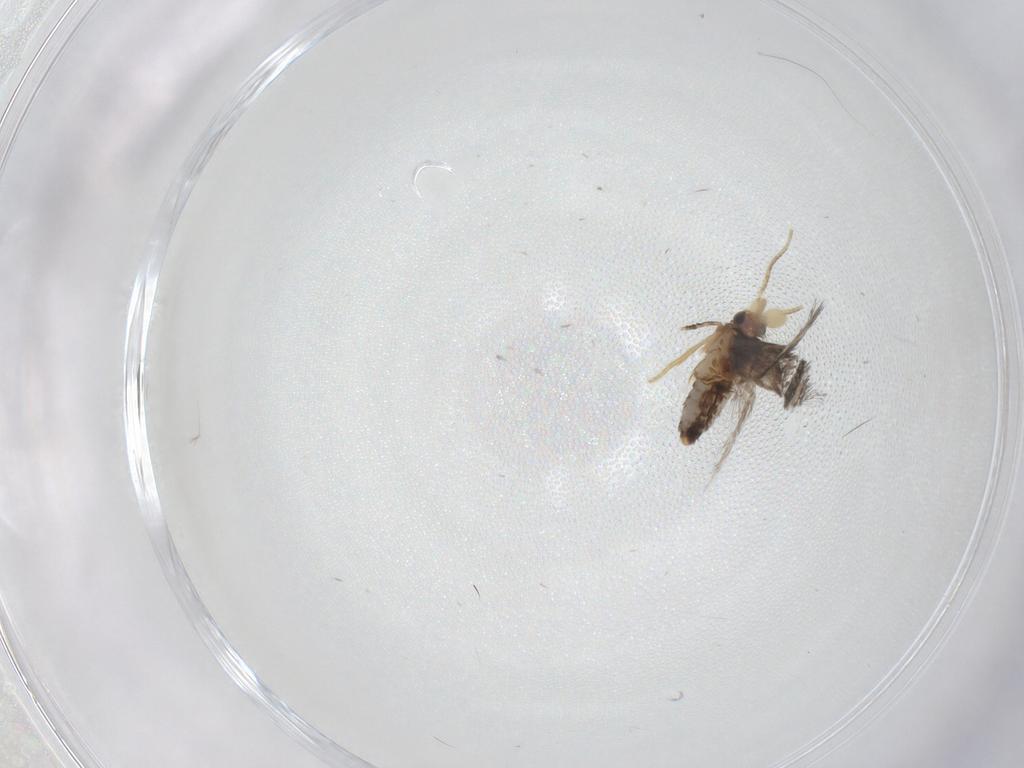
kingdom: Animalia
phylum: Arthropoda
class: Insecta
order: Lepidoptera
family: Nepticulidae
